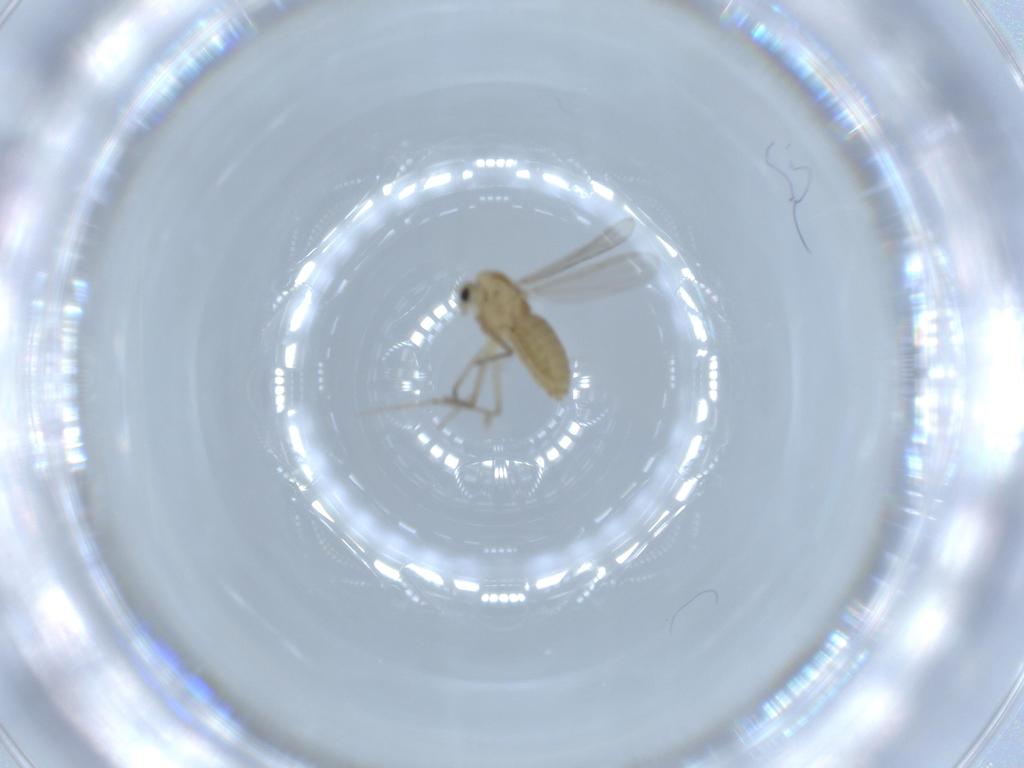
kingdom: Animalia
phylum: Arthropoda
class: Insecta
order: Diptera
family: Chironomidae
